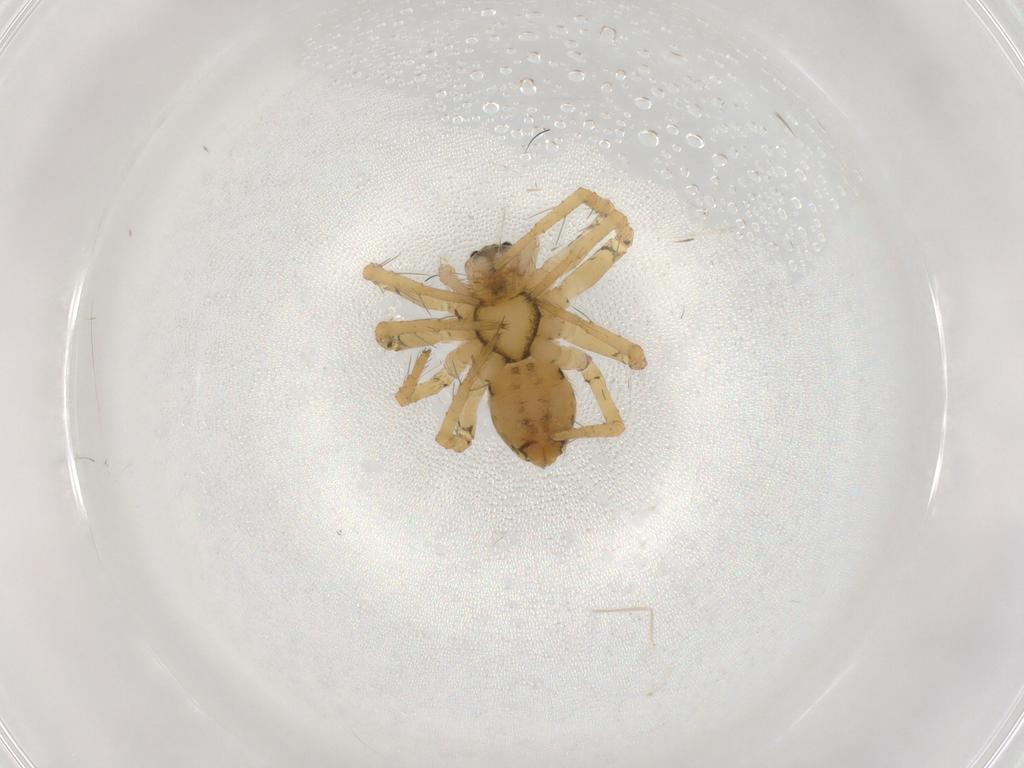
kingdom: Animalia
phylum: Arthropoda
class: Arachnida
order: Araneae
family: Pisauridae
